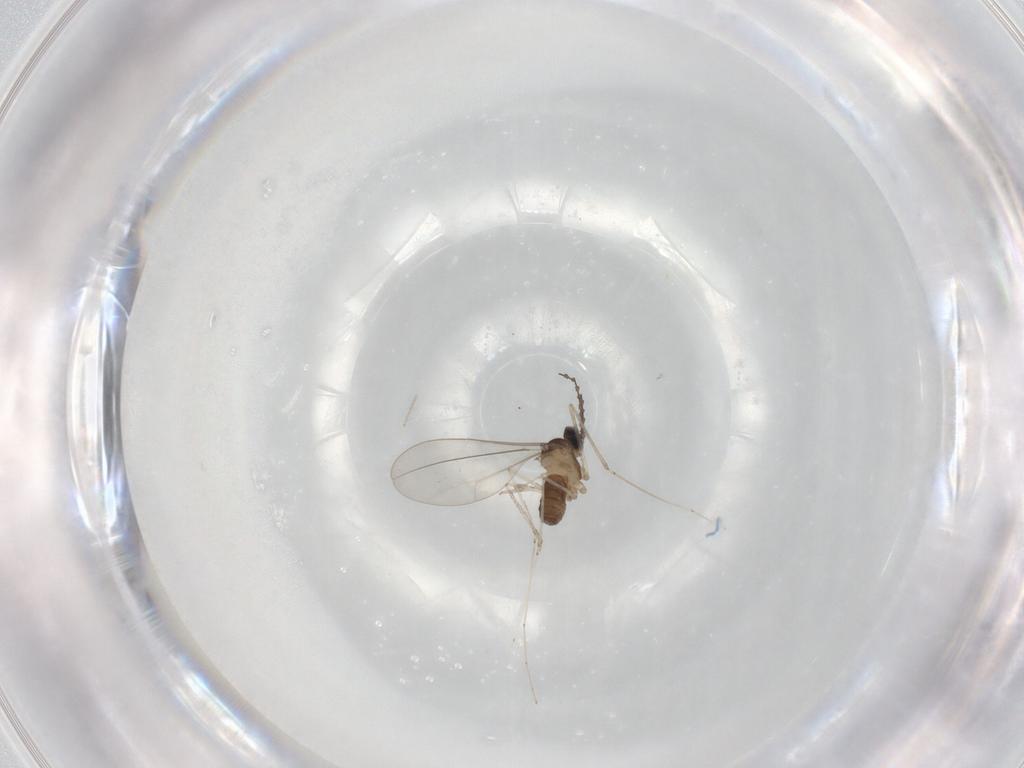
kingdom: Animalia
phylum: Arthropoda
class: Insecta
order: Diptera
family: Cecidomyiidae
